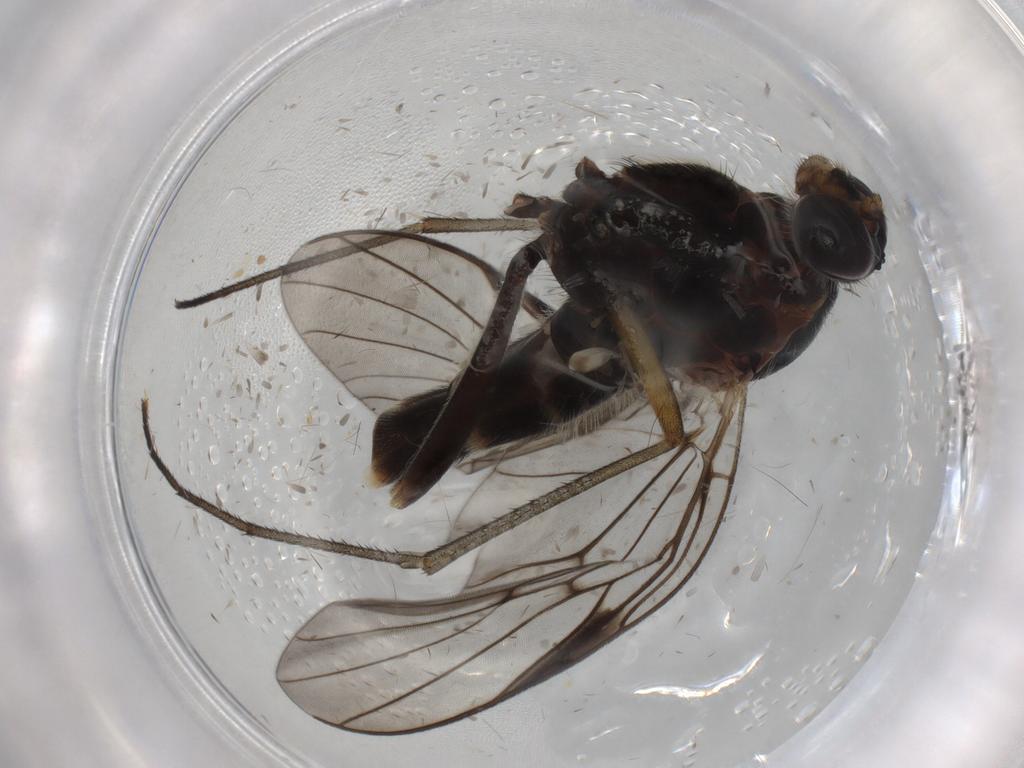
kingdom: Animalia
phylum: Arthropoda
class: Insecta
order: Diptera
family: Anisopodidae
